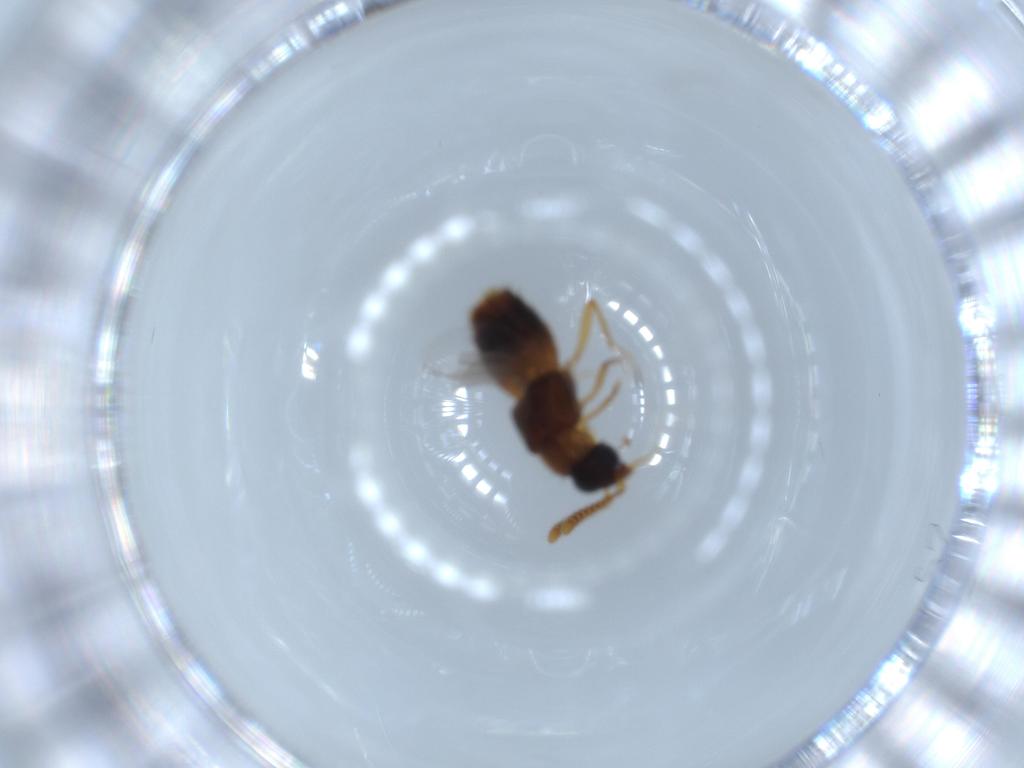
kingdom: Animalia
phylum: Arthropoda
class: Insecta
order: Coleoptera
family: Staphylinidae
